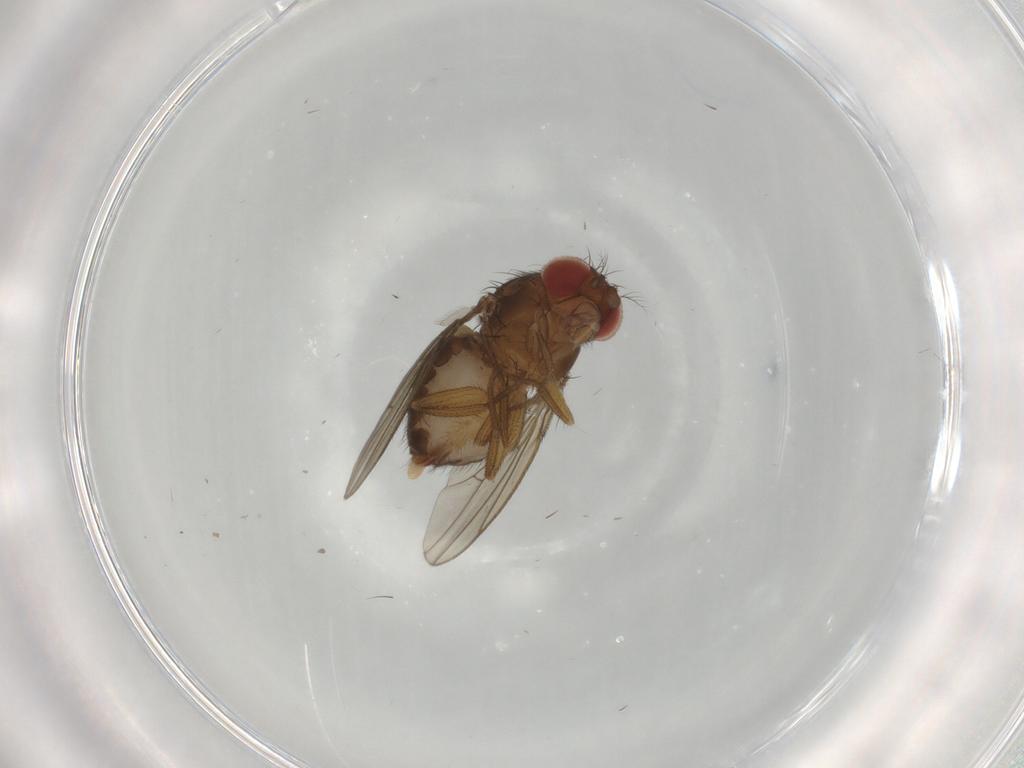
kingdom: Animalia
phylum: Arthropoda
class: Insecta
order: Diptera
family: Drosophilidae
